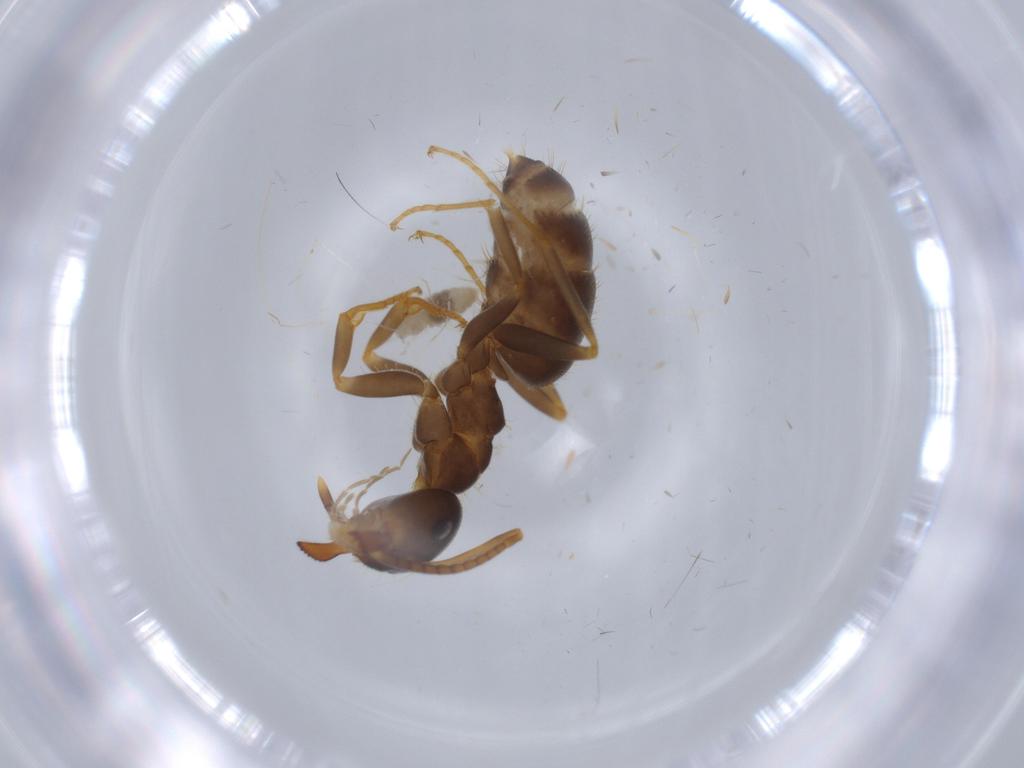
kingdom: Animalia
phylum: Arthropoda
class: Insecta
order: Hymenoptera
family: Formicidae
